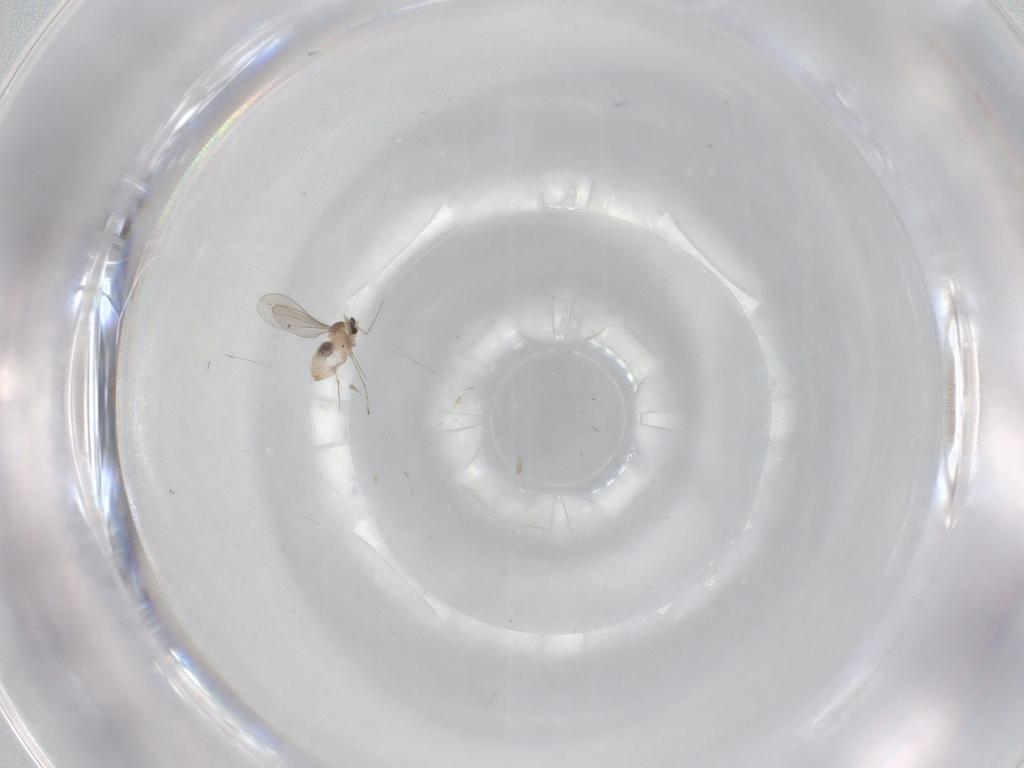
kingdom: Animalia
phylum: Arthropoda
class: Insecta
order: Diptera
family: Cecidomyiidae
